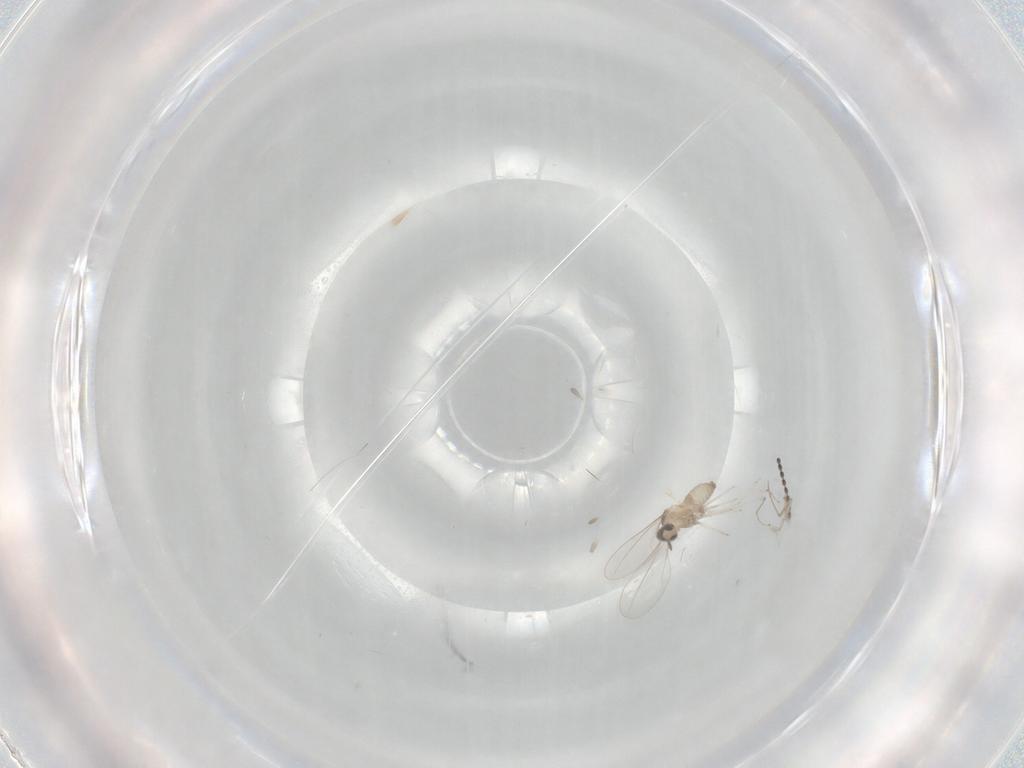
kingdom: Animalia
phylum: Arthropoda
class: Insecta
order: Diptera
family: Cecidomyiidae
